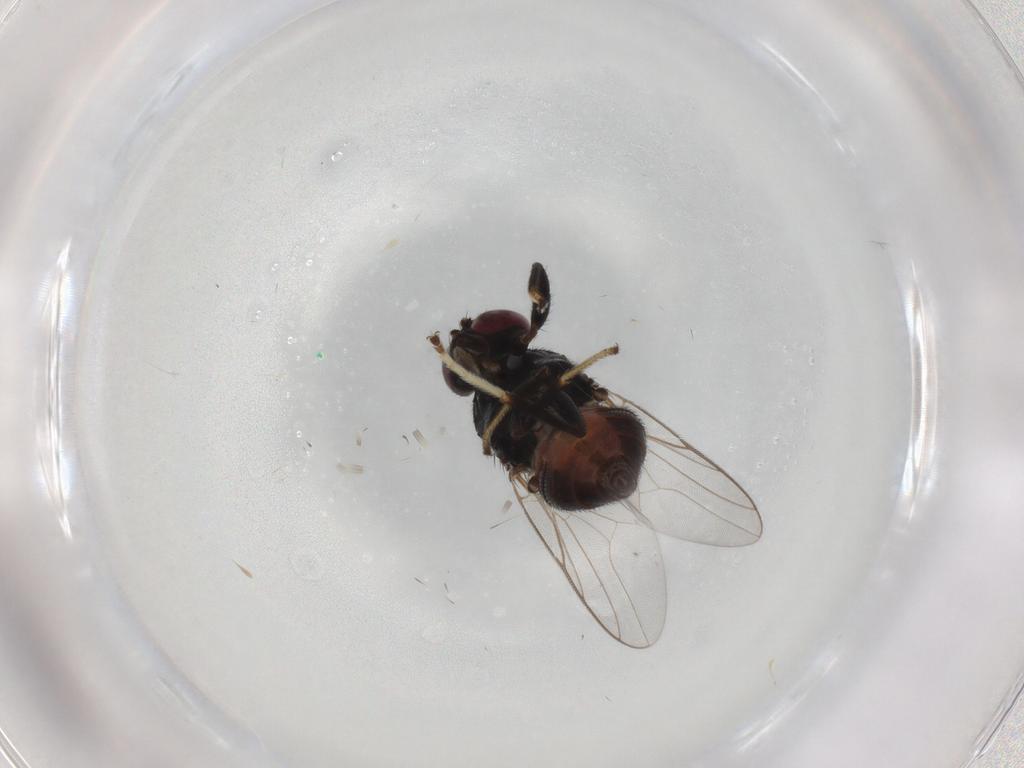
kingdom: Animalia
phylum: Arthropoda
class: Insecta
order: Diptera
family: Chloropidae
